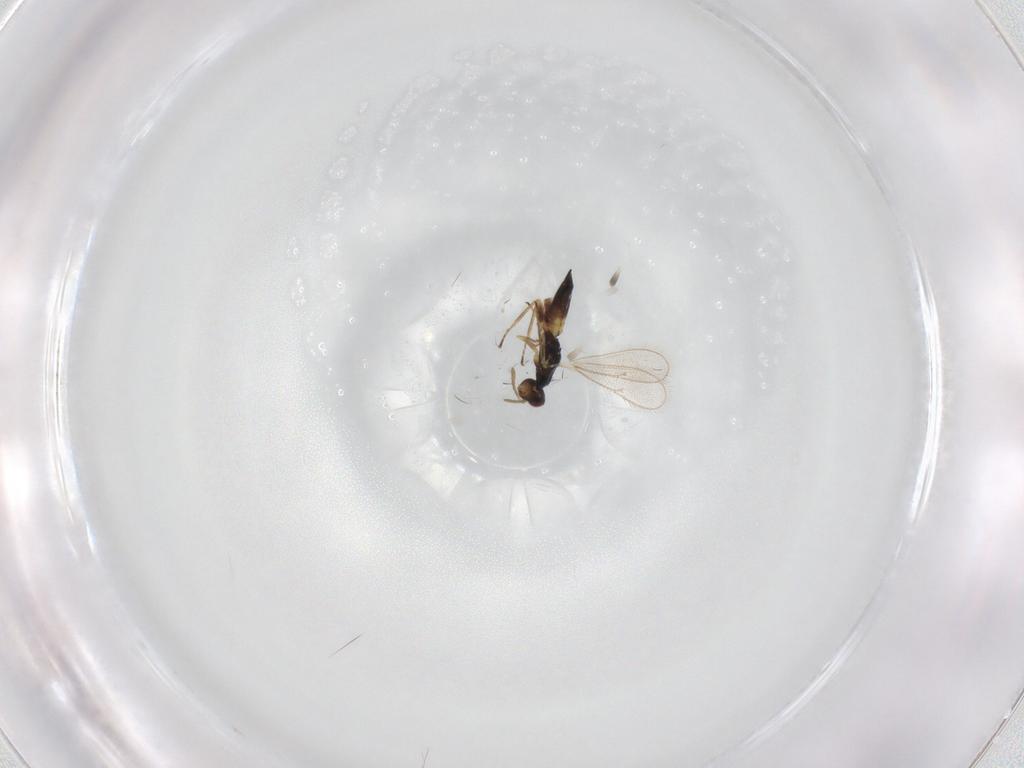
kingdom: Animalia
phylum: Arthropoda
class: Insecta
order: Hymenoptera
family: Eulophidae
